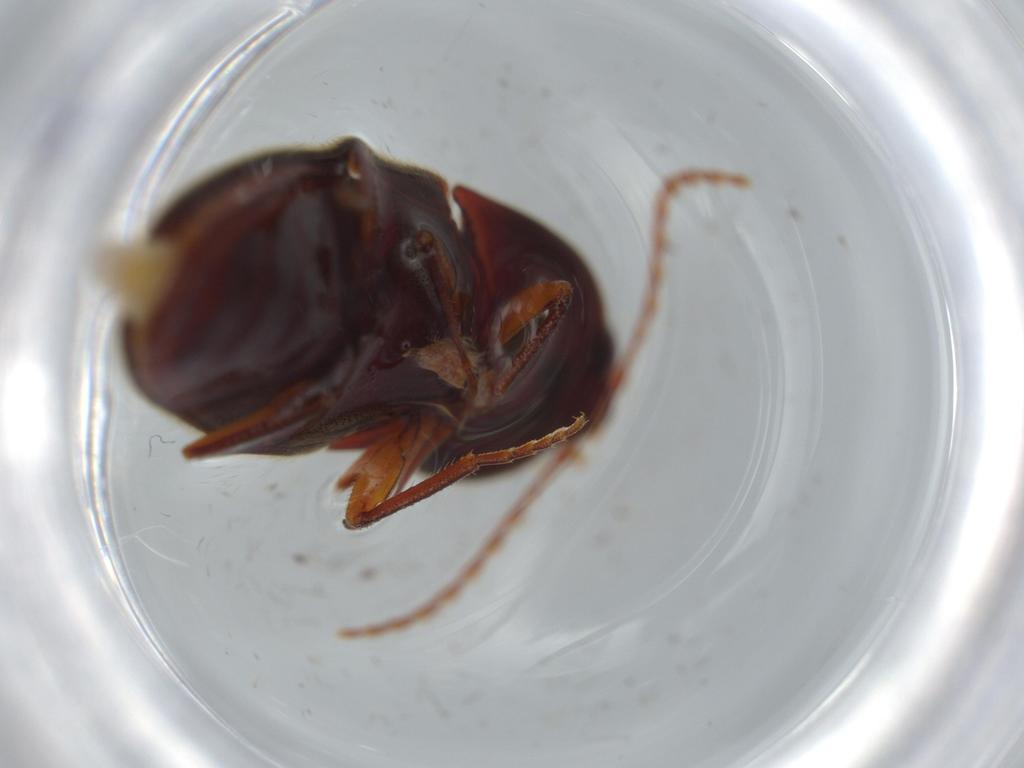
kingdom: Animalia
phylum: Arthropoda
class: Insecta
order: Coleoptera
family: Elateridae
